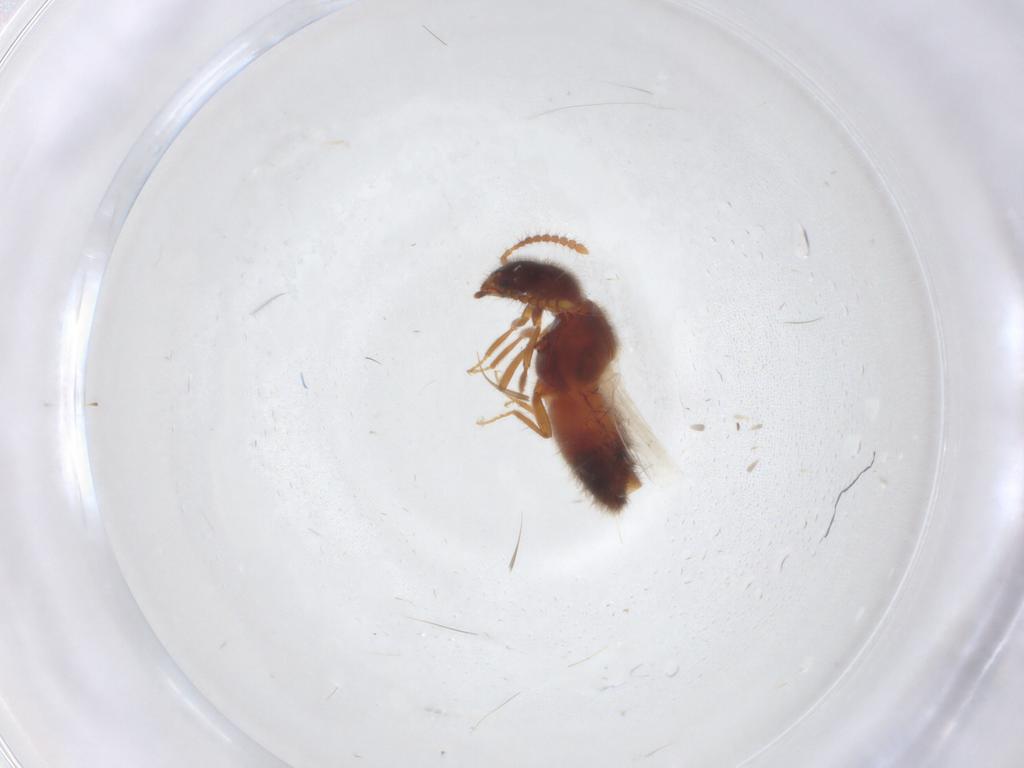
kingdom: Animalia
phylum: Arthropoda
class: Insecta
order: Coleoptera
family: Staphylinidae
